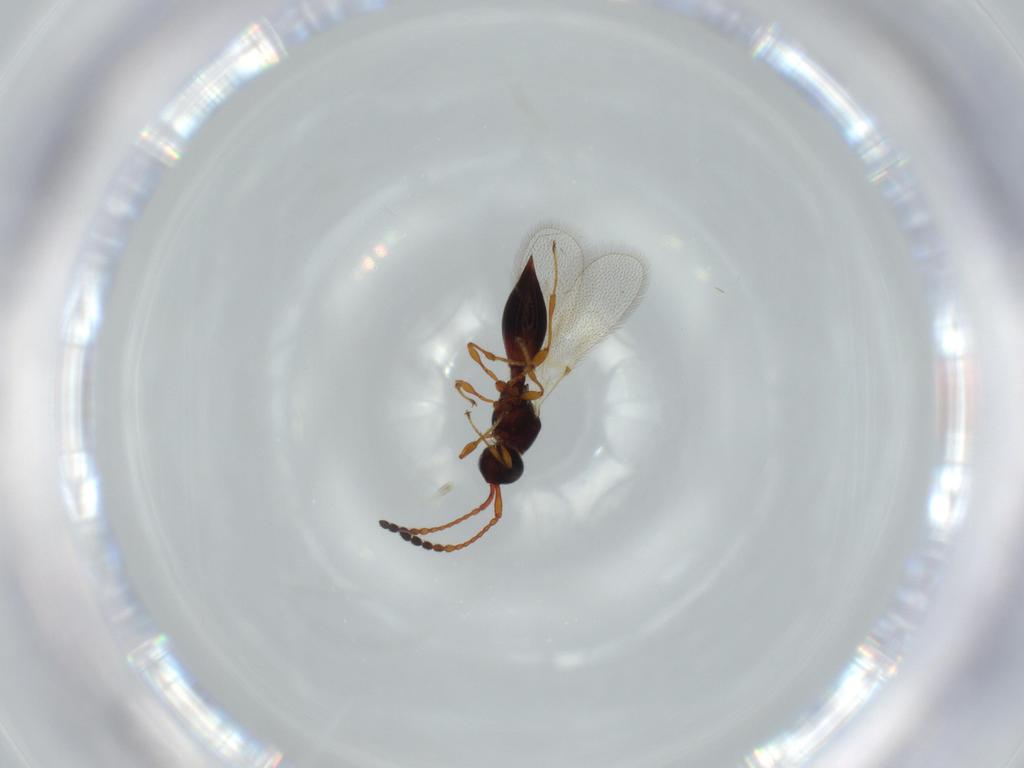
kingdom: Animalia
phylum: Arthropoda
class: Insecta
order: Hymenoptera
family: Diapriidae
